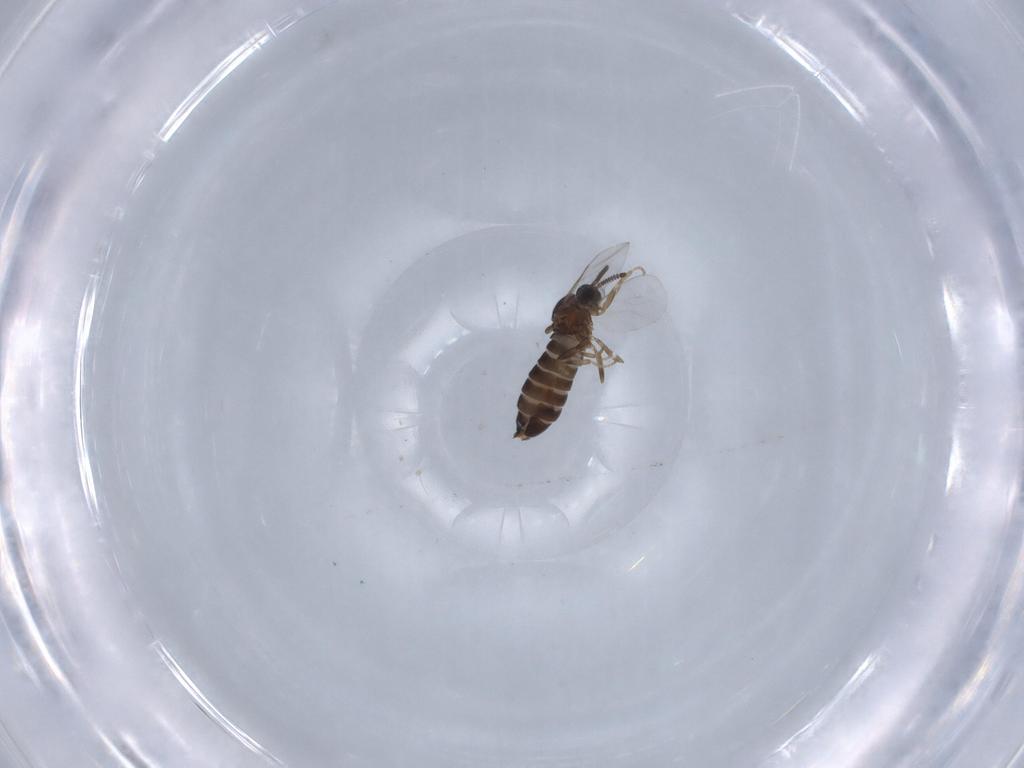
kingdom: Animalia
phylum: Arthropoda
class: Insecta
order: Diptera
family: Scatopsidae
